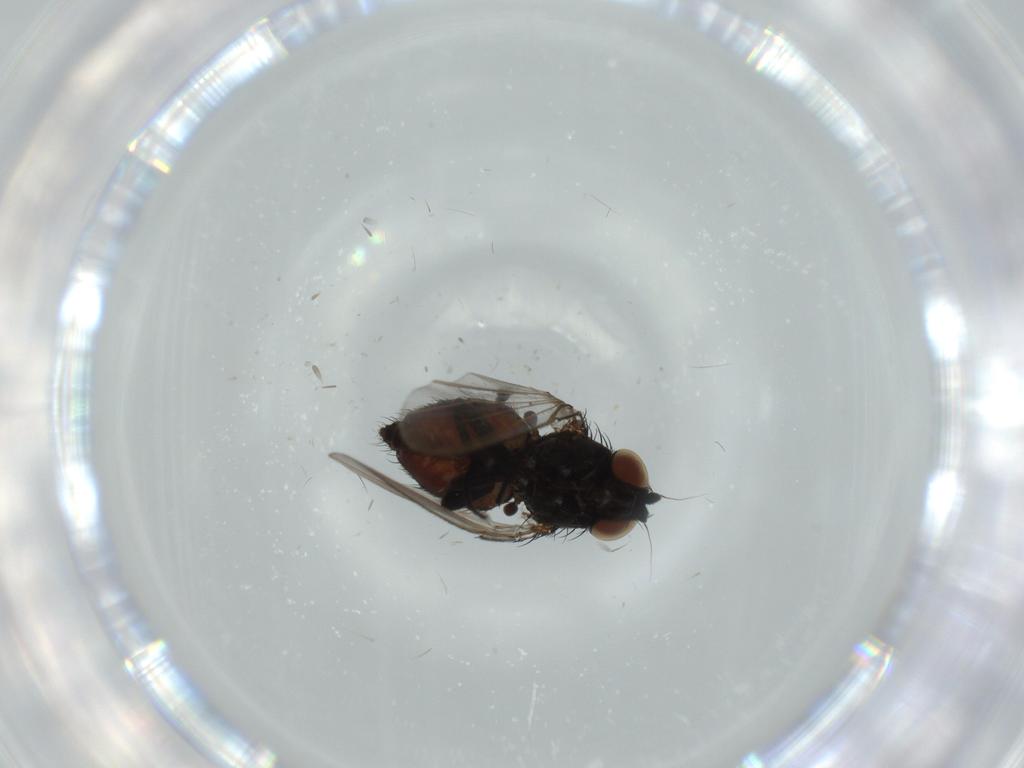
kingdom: Animalia
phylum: Arthropoda
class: Insecta
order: Diptera
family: Milichiidae
